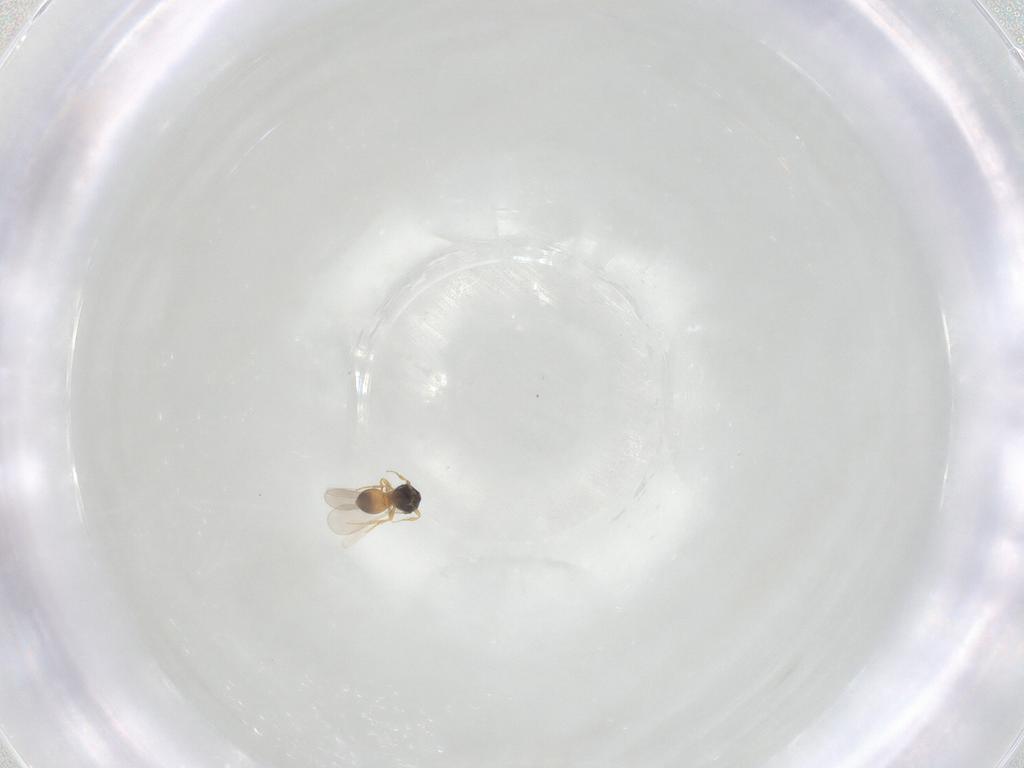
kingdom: Animalia
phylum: Arthropoda
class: Insecta
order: Hymenoptera
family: Platygastridae
